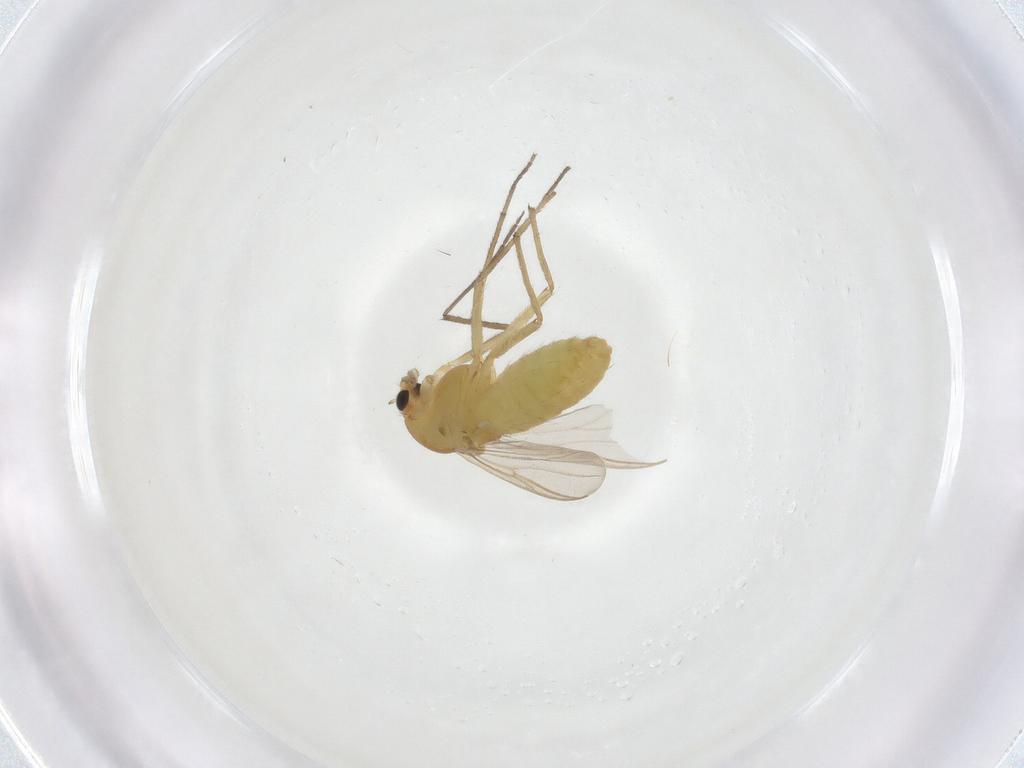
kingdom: Animalia
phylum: Arthropoda
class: Insecta
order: Diptera
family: Chironomidae
